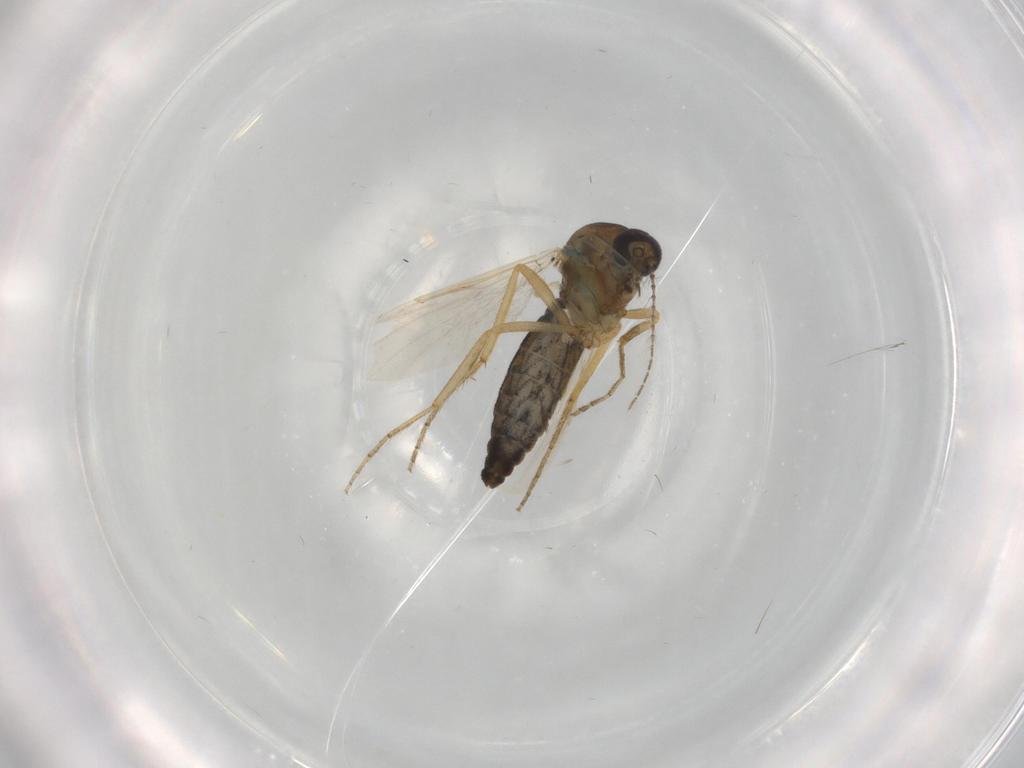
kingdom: Animalia
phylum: Arthropoda
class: Insecta
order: Diptera
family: Ceratopogonidae
